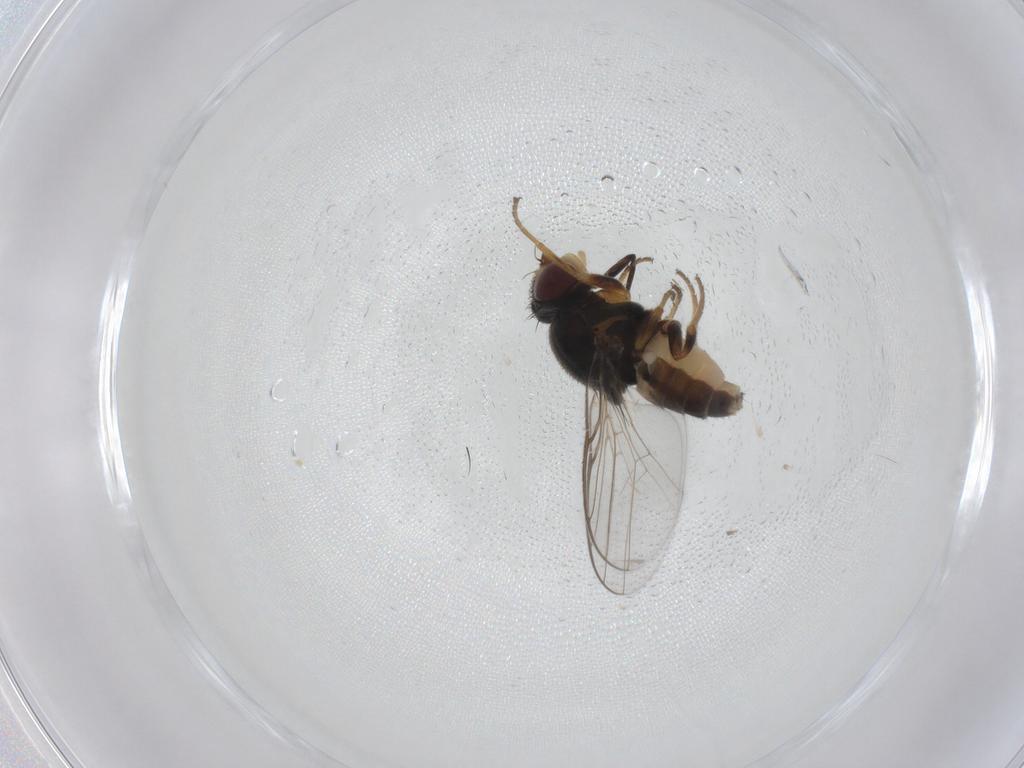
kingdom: Animalia
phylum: Arthropoda
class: Insecta
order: Diptera
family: Chloropidae
